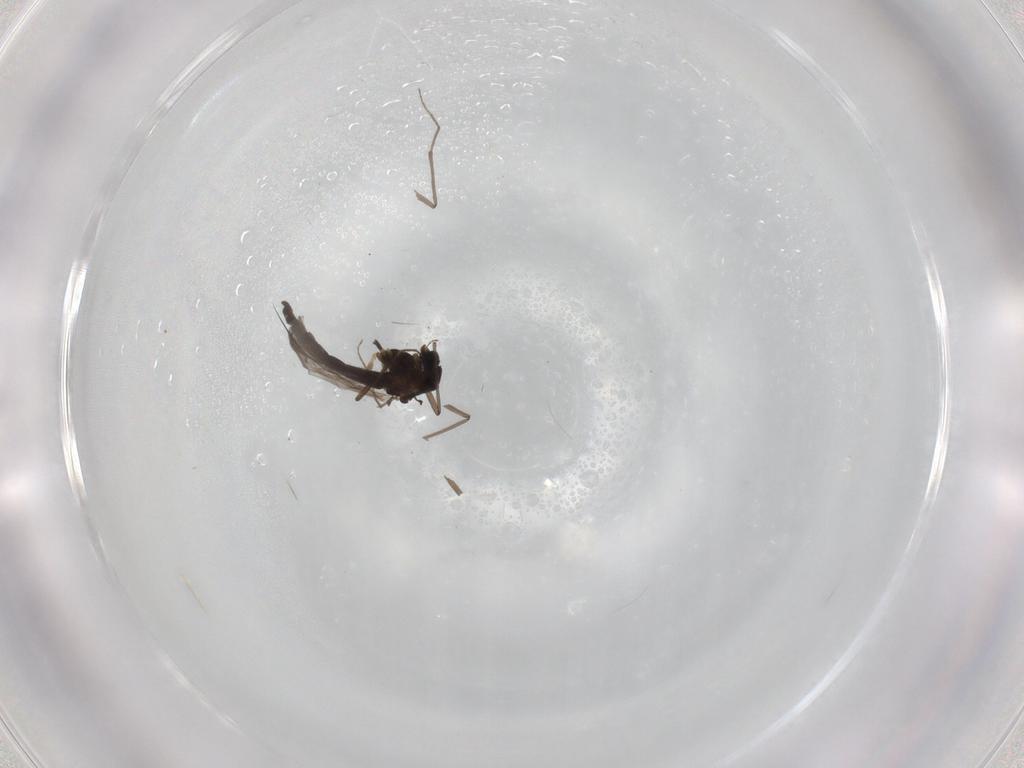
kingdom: Animalia
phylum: Arthropoda
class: Insecta
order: Diptera
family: Chironomidae
